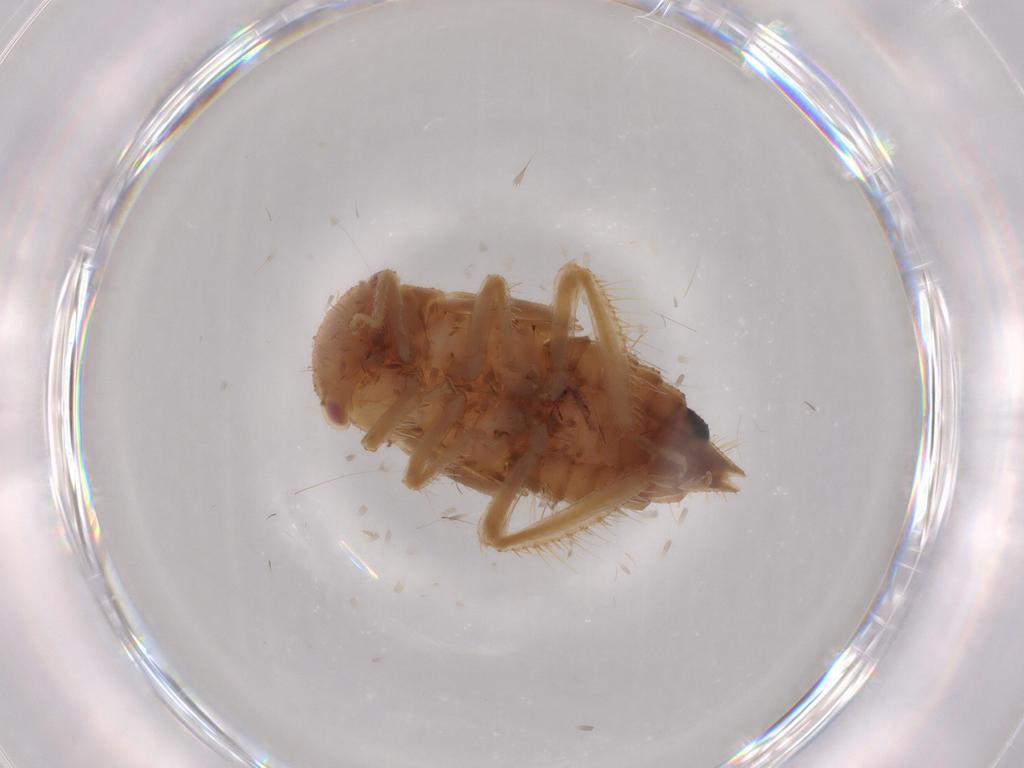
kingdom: Animalia
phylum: Arthropoda
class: Insecta
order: Hemiptera
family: Cicadellidae
